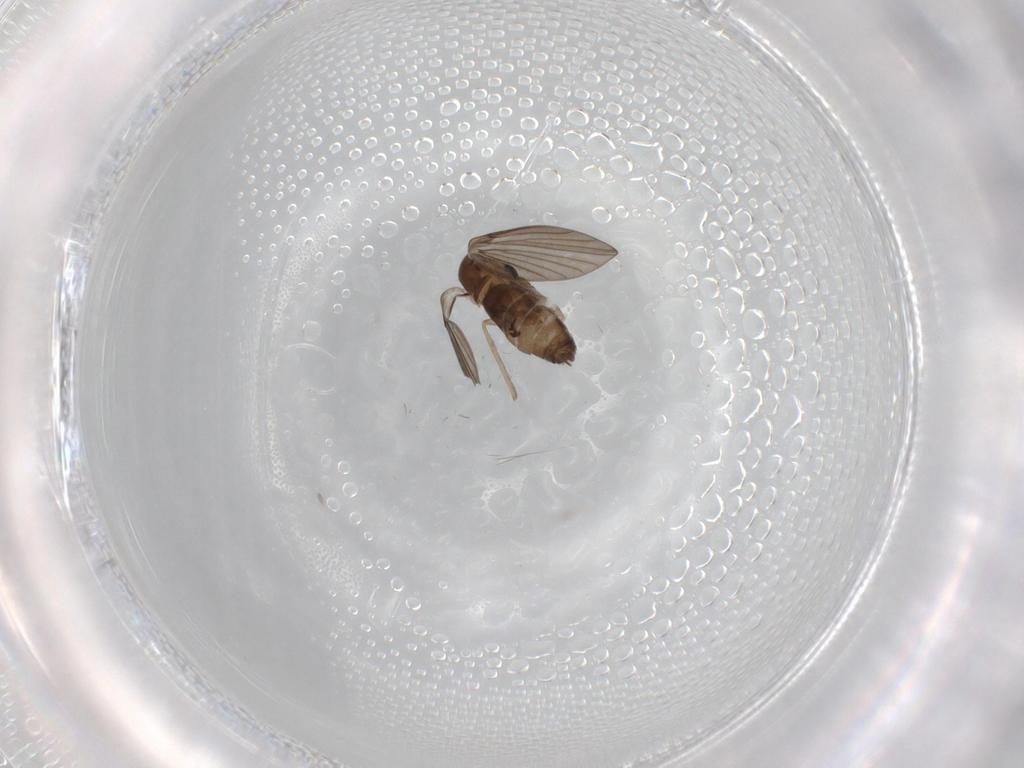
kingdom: Animalia
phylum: Arthropoda
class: Insecta
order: Diptera
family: Psychodidae
